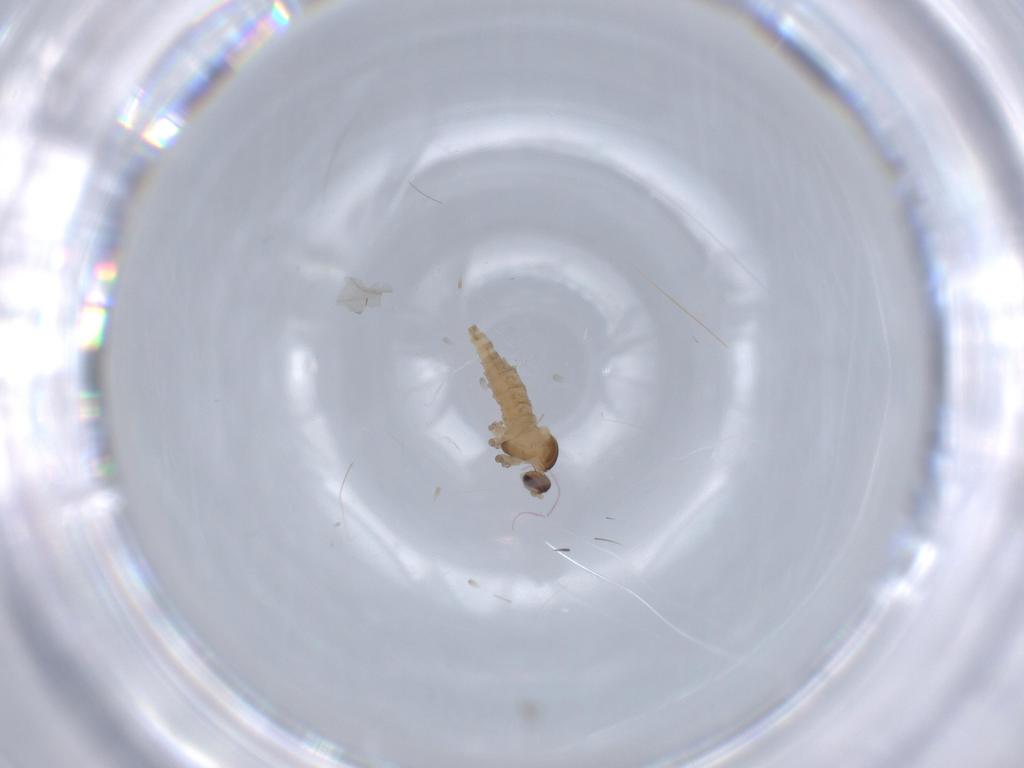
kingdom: Animalia
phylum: Arthropoda
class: Insecta
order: Diptera
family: Cecidomyiidae
